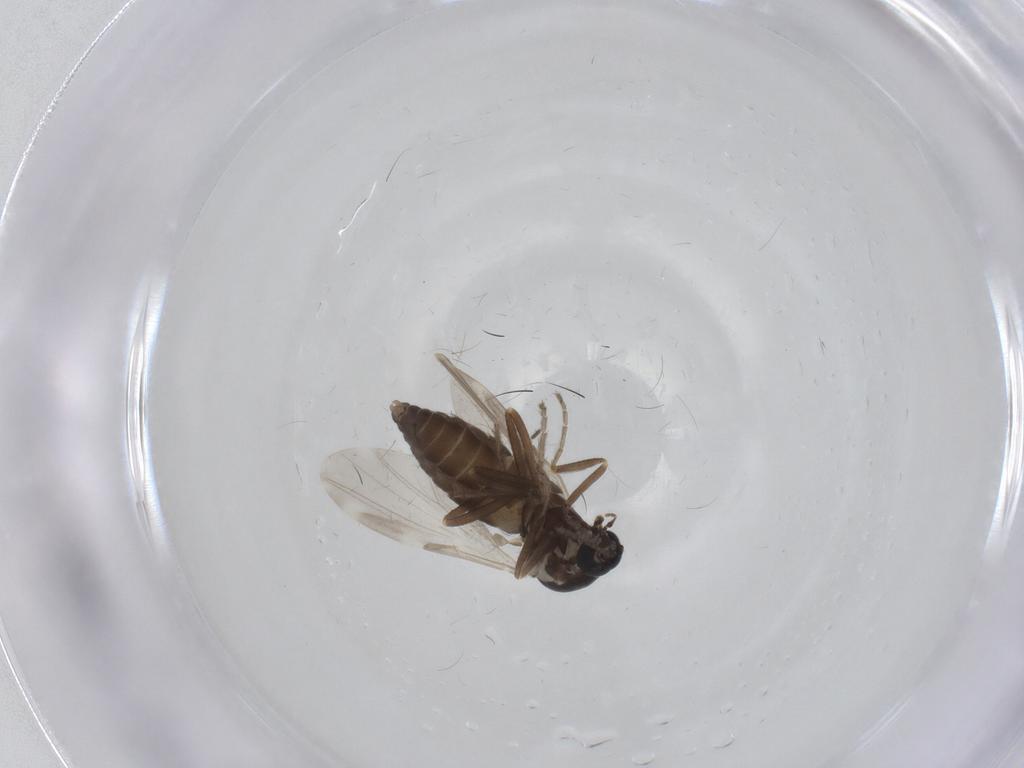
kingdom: Animalia
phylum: Arthropoda
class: Insecta
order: Diptera
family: Ceratopogonidae
